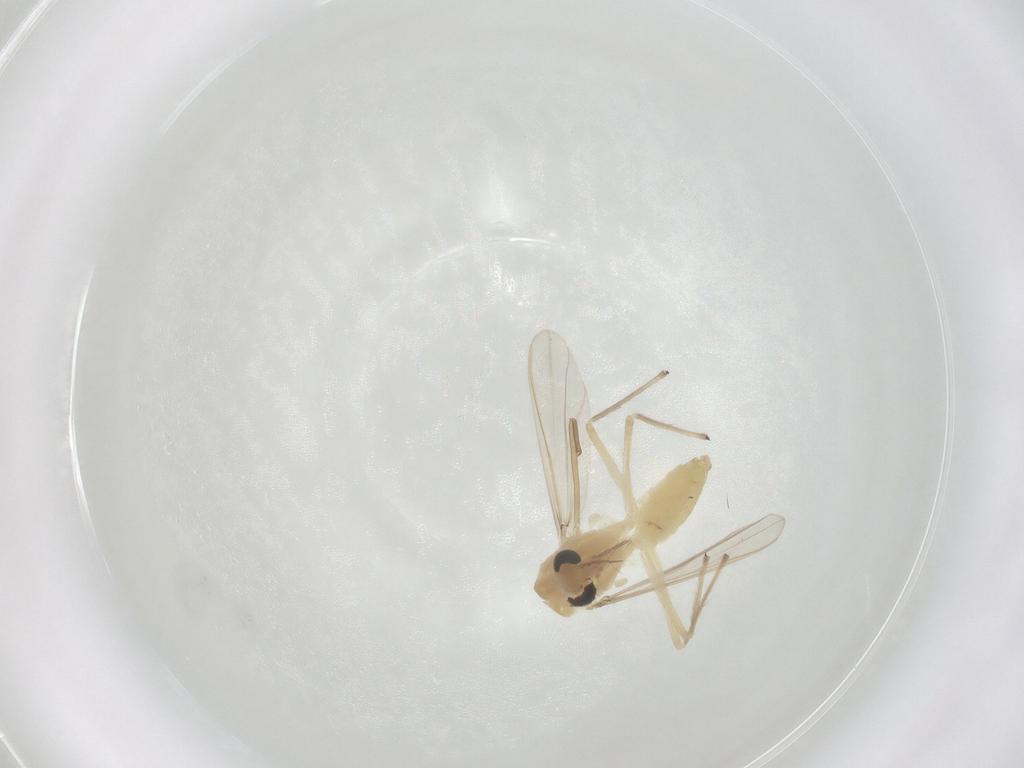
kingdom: Animalia
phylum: Arthropoda
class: Insecta
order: Diptera
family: Chironomidae
